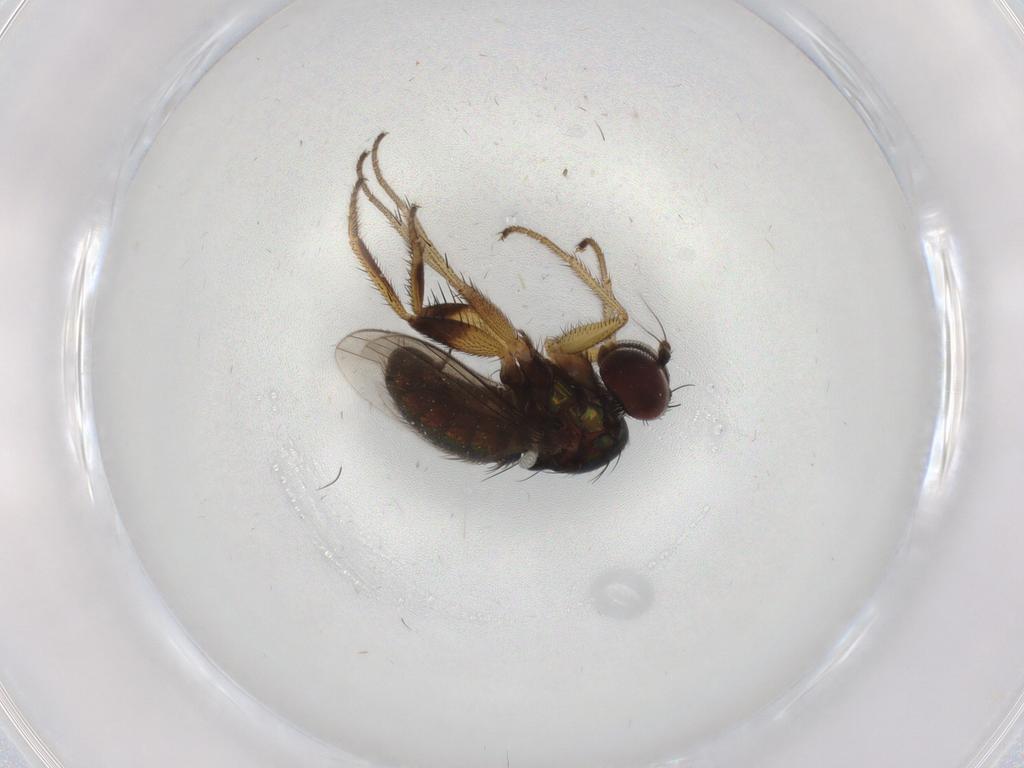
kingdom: Animalia
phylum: Arthropoda
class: Insecta
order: Diptera
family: Dolichopodidae
